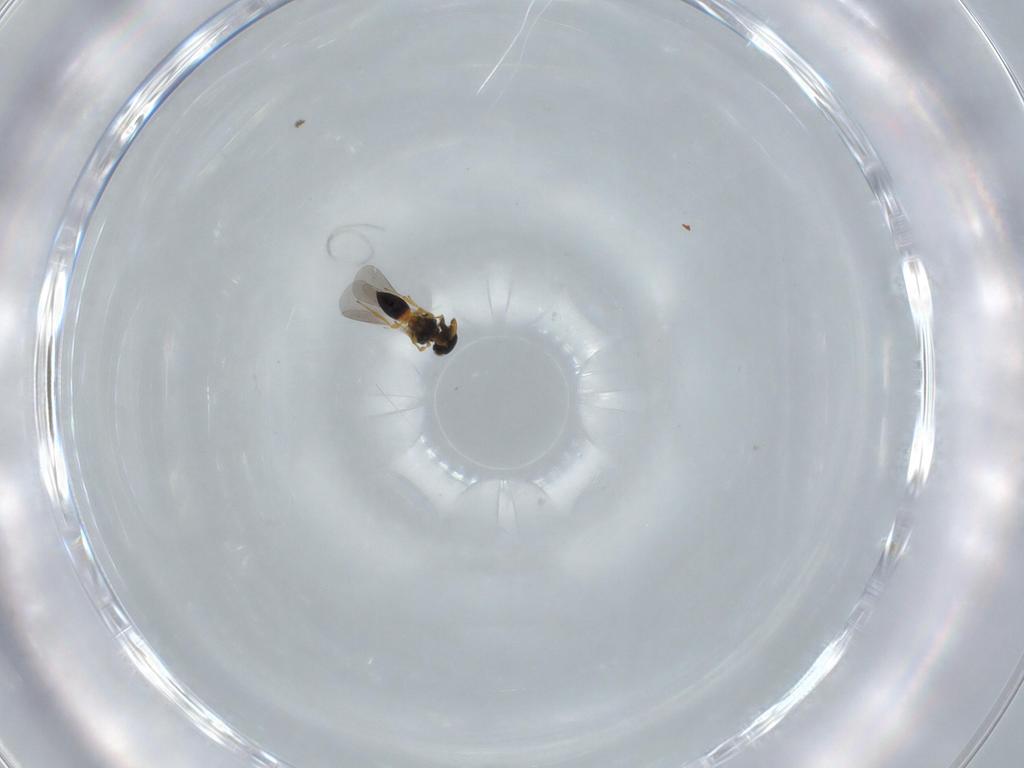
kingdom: Animalia
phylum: Arthropoda
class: Insecta
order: Hymenoptera
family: Platygastridae
